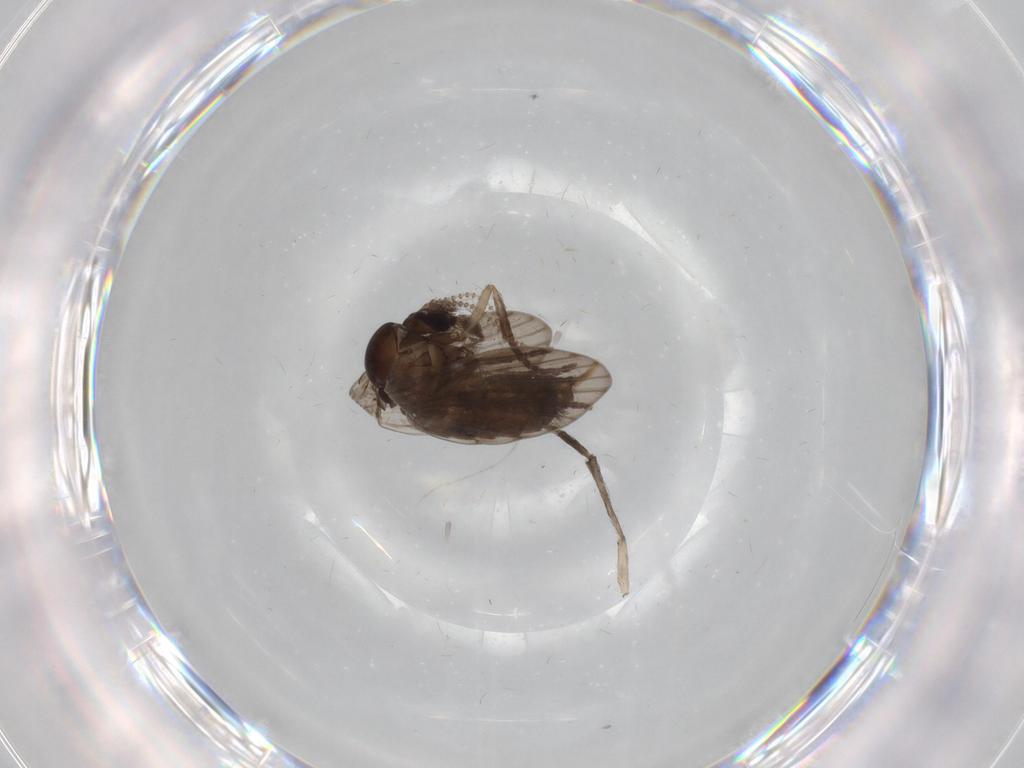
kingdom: Animalia
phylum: Arthropoda
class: Insecta
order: Diptera
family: Psychodidae
